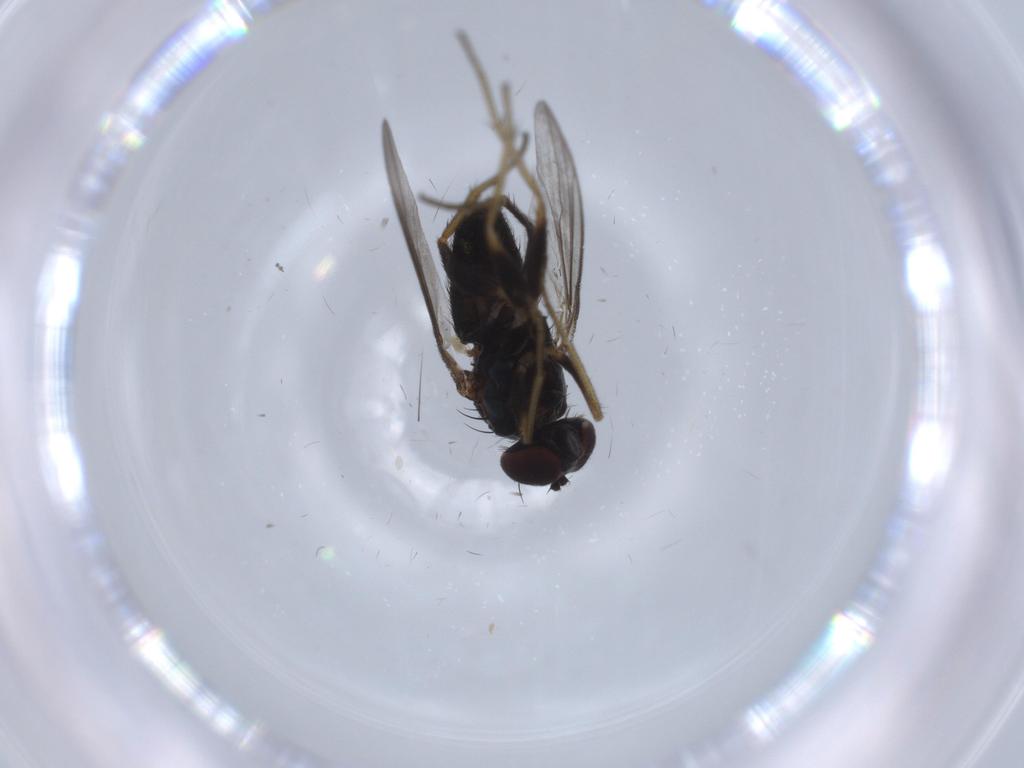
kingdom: Animalia
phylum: Arthropoda
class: Insecta
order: Diptera
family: Dolichopodidae
